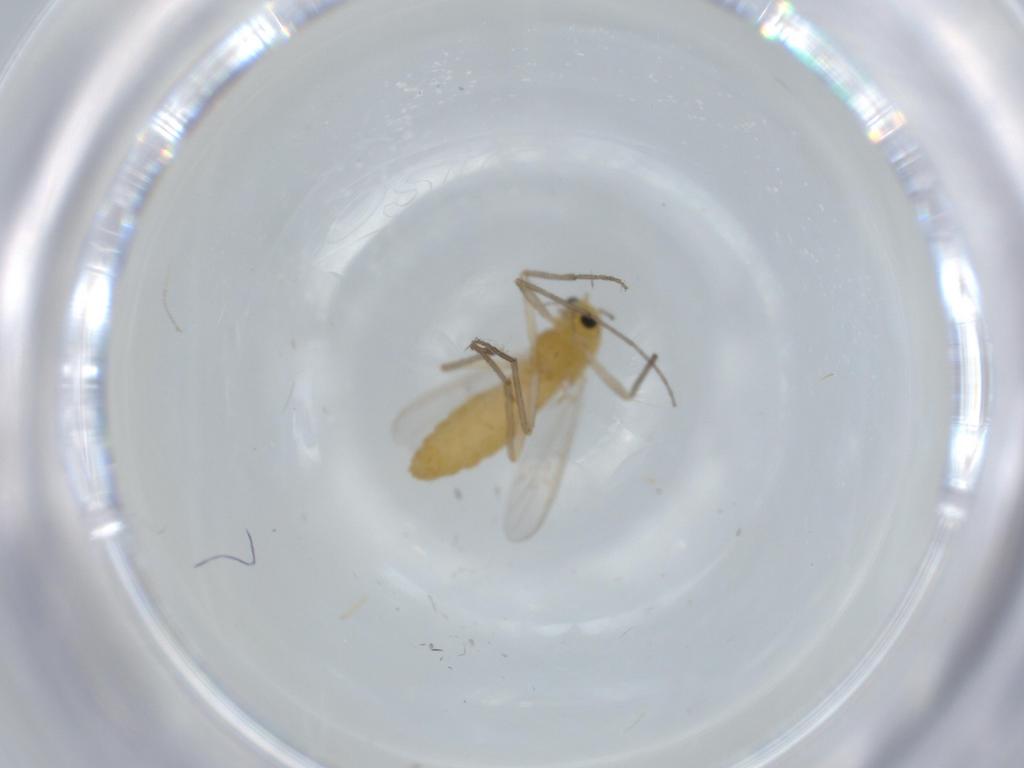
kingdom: Animalia
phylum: Arthropoda
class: Insecta
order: Diptera
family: Chironomidae
